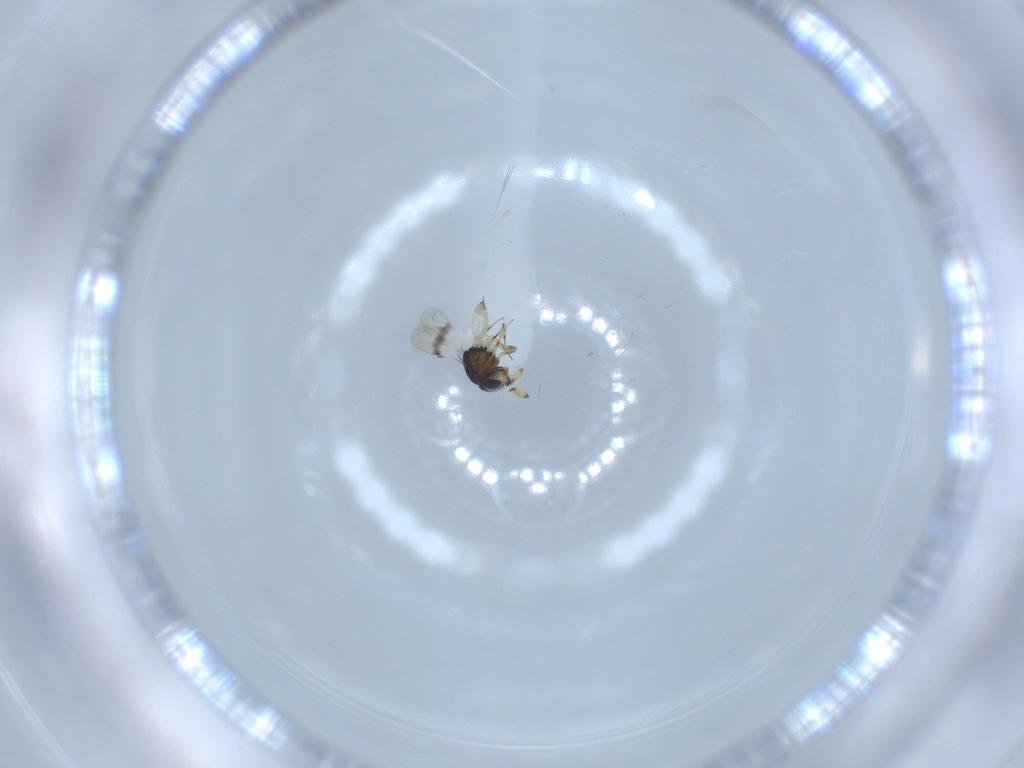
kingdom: Animalia
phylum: Arthropoda
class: Insecta
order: Hymenoptera
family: Scelionidae
